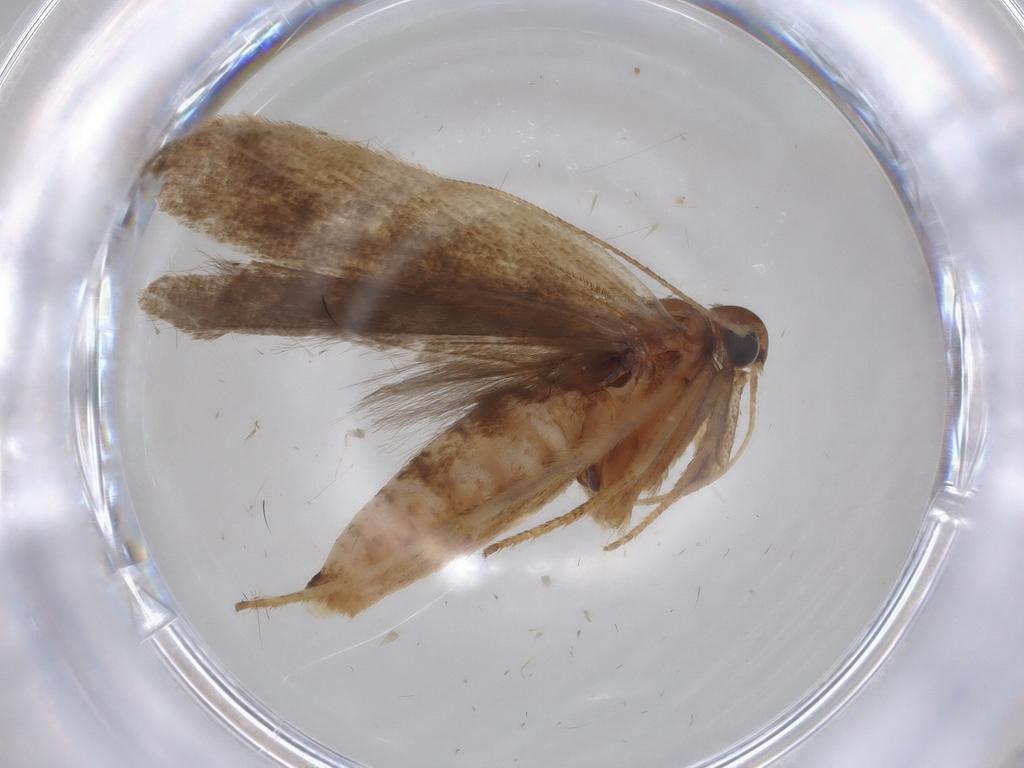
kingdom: Animalia
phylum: Arthropoda
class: Insecta
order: Lepidoptera
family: Gelechiidae
